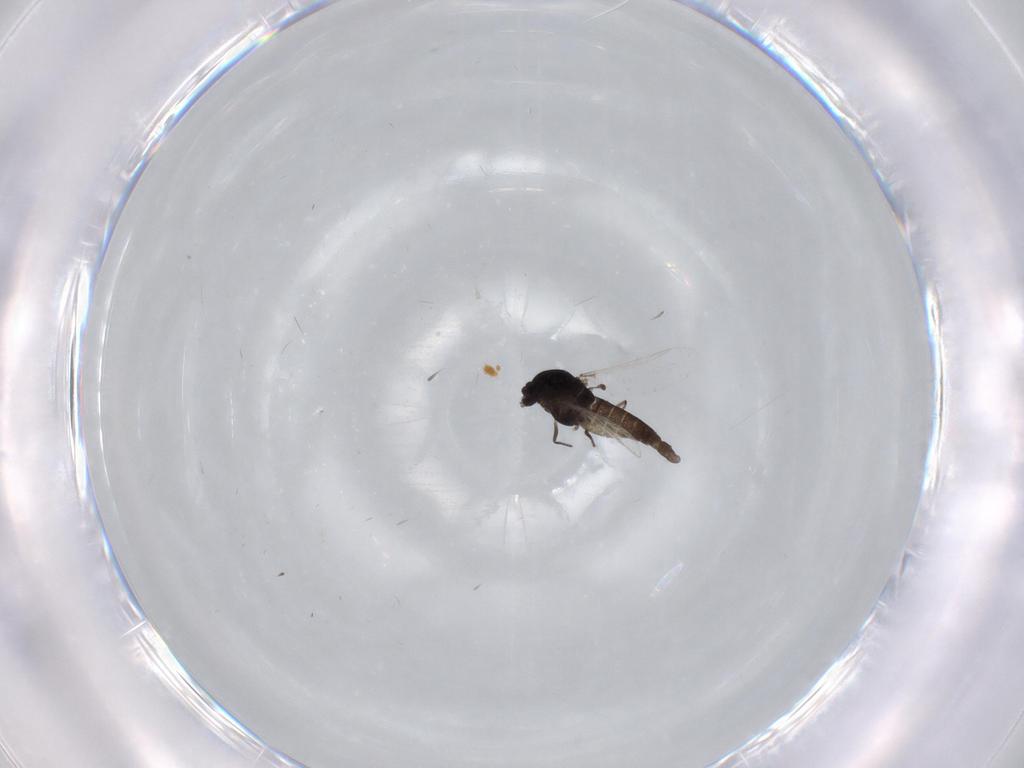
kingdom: Animalia
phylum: Arthropoda
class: Insecta
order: Diptera
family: Chironomidae
